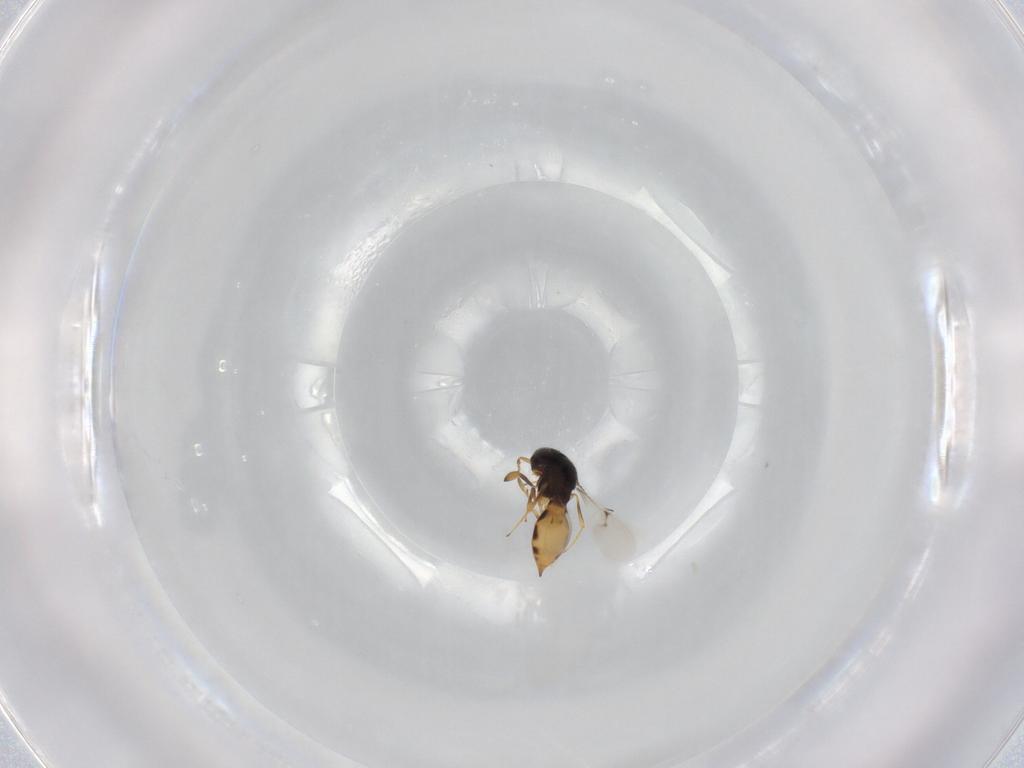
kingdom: Animalia
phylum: Arthropoda
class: Insecta
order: Hymenoptera
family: Scelionidae
